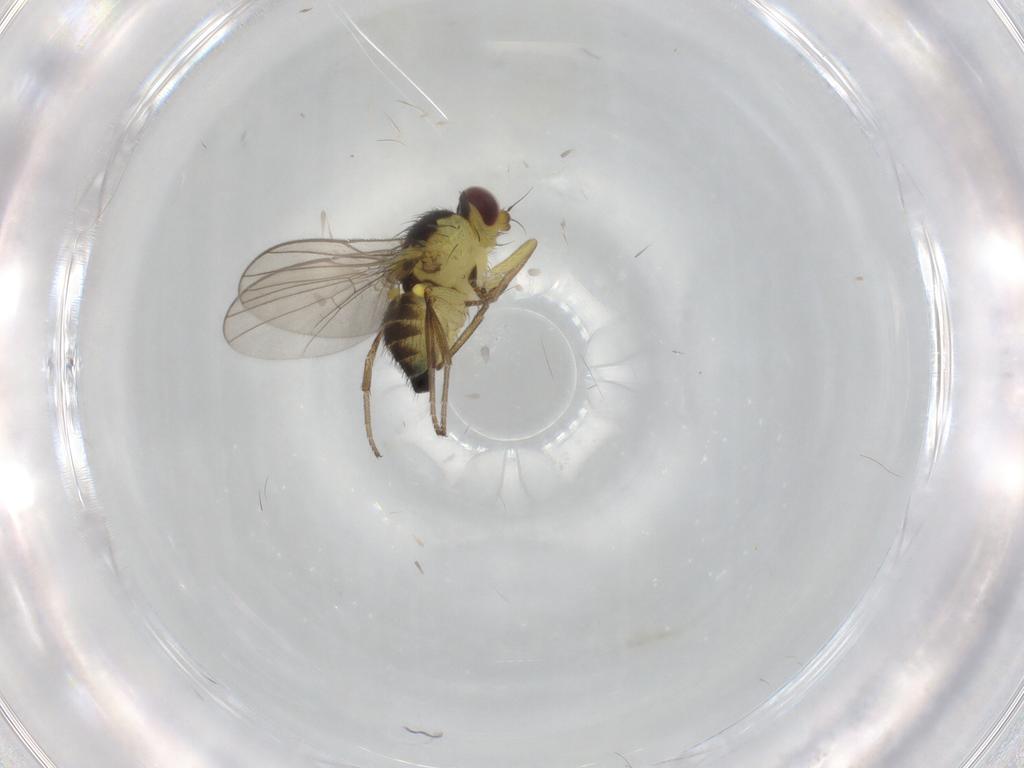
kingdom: Animalia
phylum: Arthropoda
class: Insecta
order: Diptera
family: Agromyzidae
